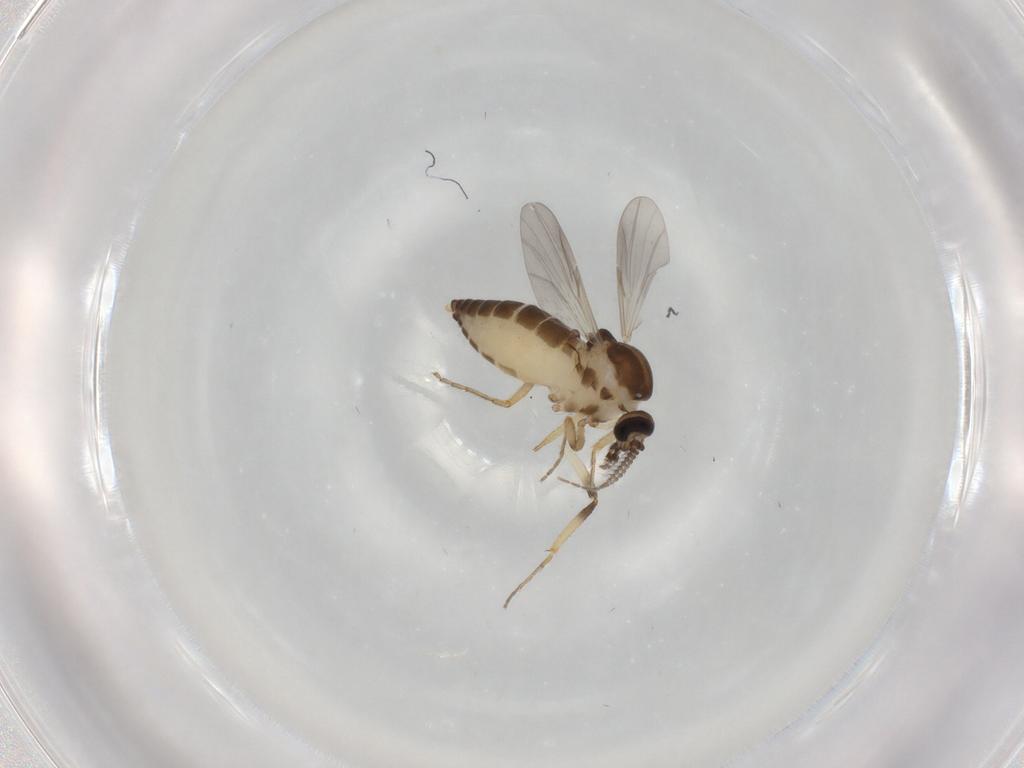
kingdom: Animalia
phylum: Arthropoda
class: Insecta
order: Diptera
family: Ceratopogonidae
